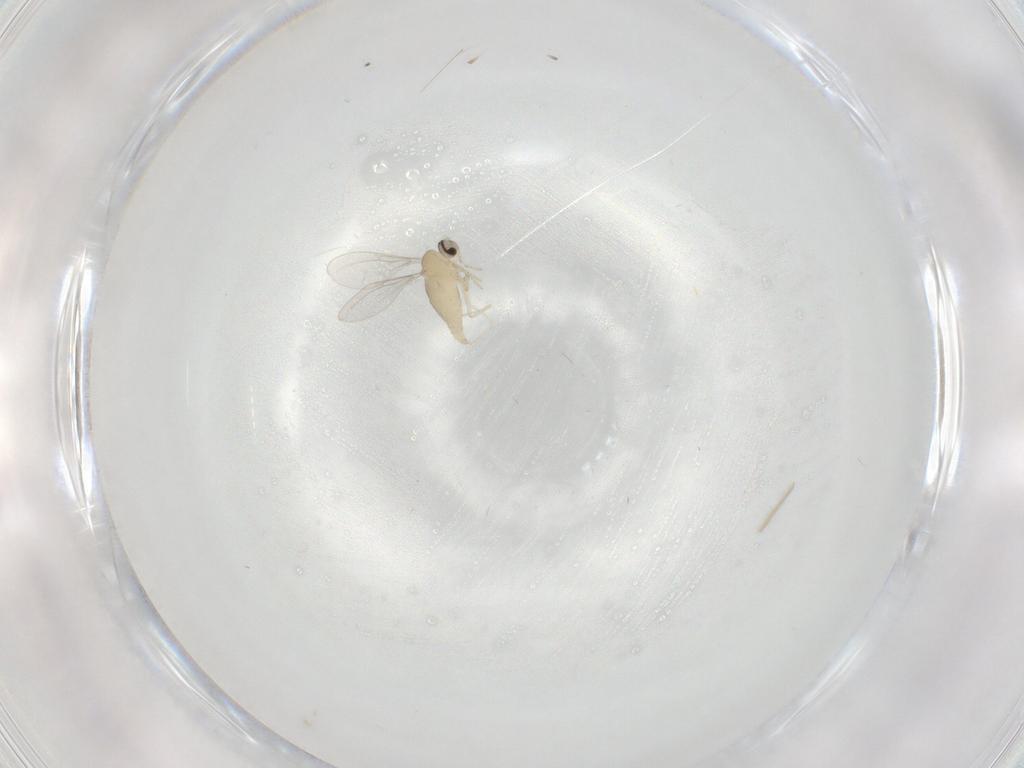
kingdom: Animalia
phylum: Arthropoda
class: Insecta
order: Diptera
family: Cecidomyiidae
